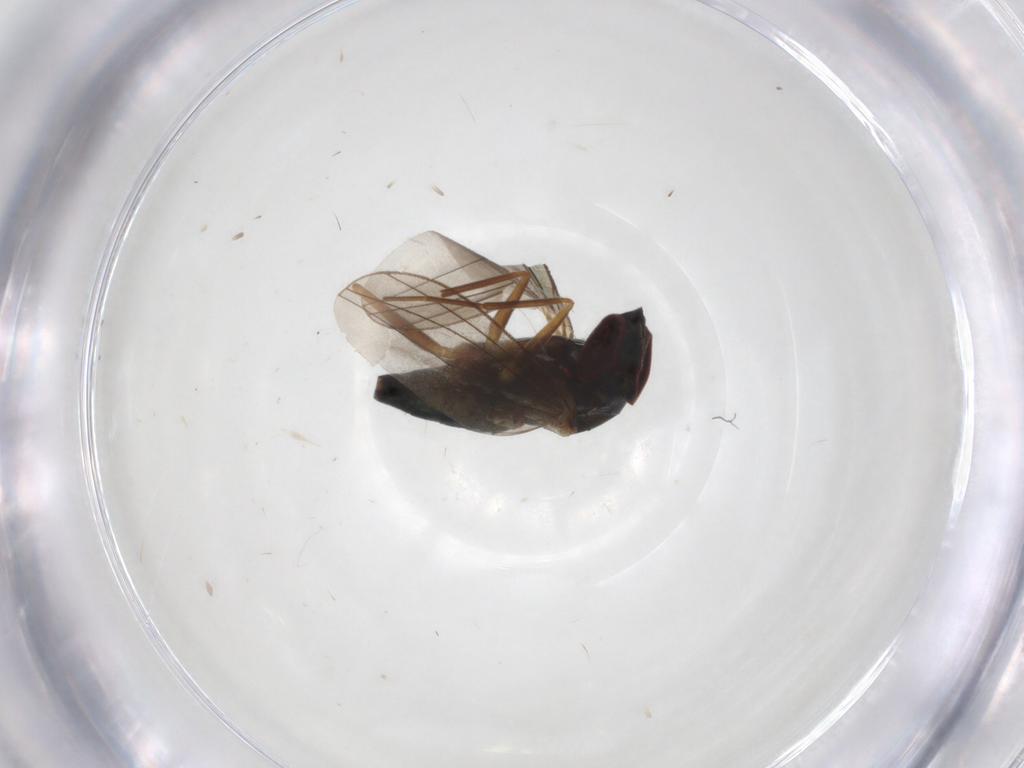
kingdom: Animalia
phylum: Arthropoda
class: Insecta
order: Diptera
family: Dolichopodidae
